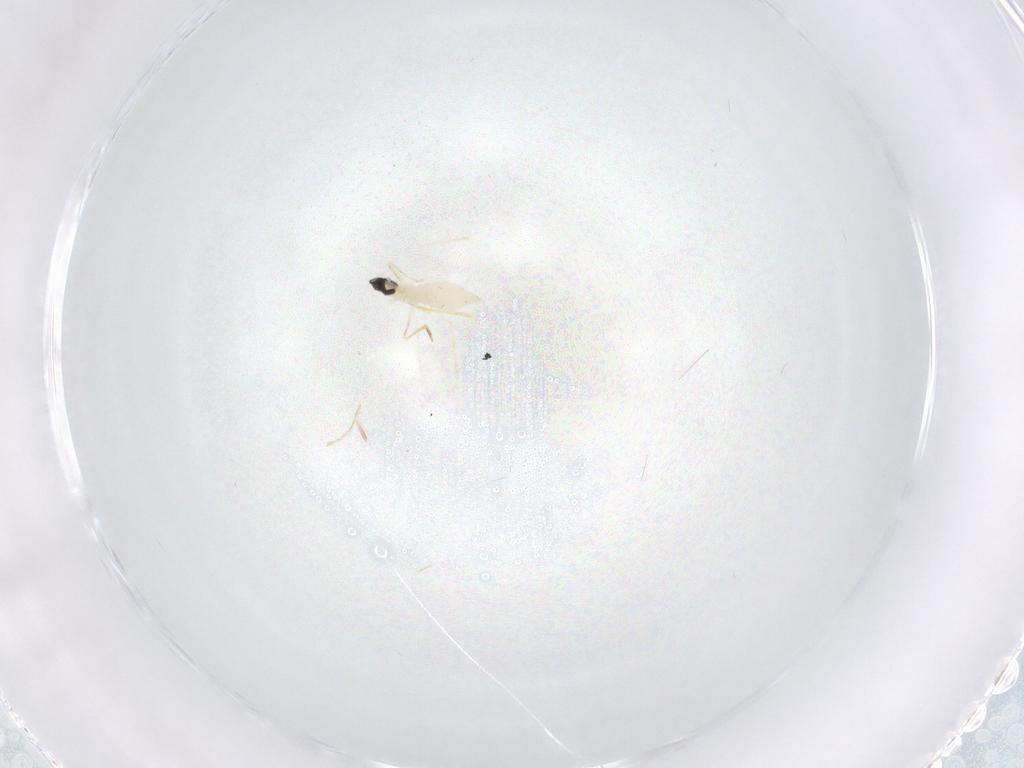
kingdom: Animalia
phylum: Arthropoda
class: Insecta
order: Diptera
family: Cecidomyiidae
